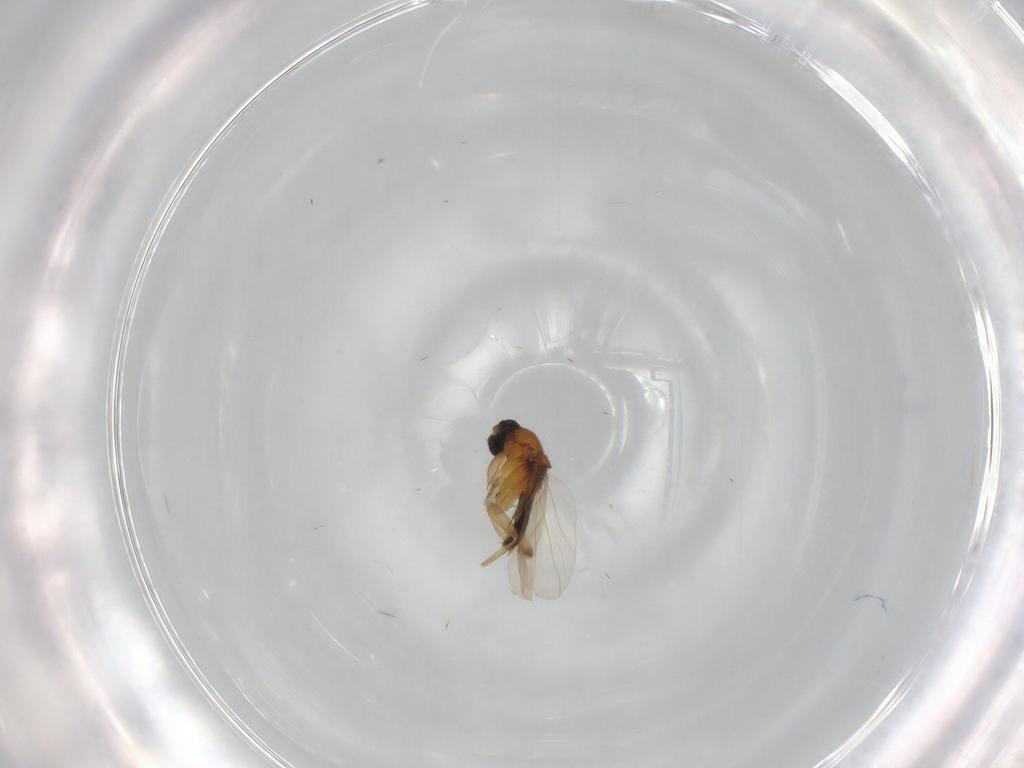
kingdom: Animalia
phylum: Arthropoda
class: Insecta
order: Diptera
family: Phoridae
